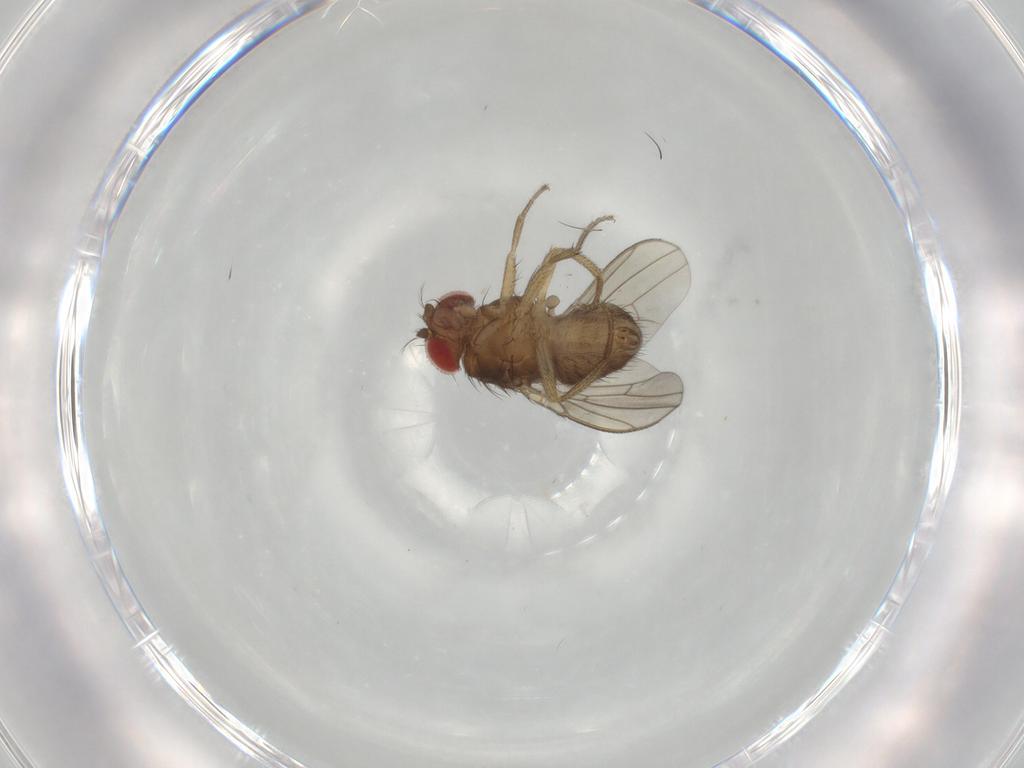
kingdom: Animalia
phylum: Arthropoda
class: Insecta
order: Diptera
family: Drosophilidae
